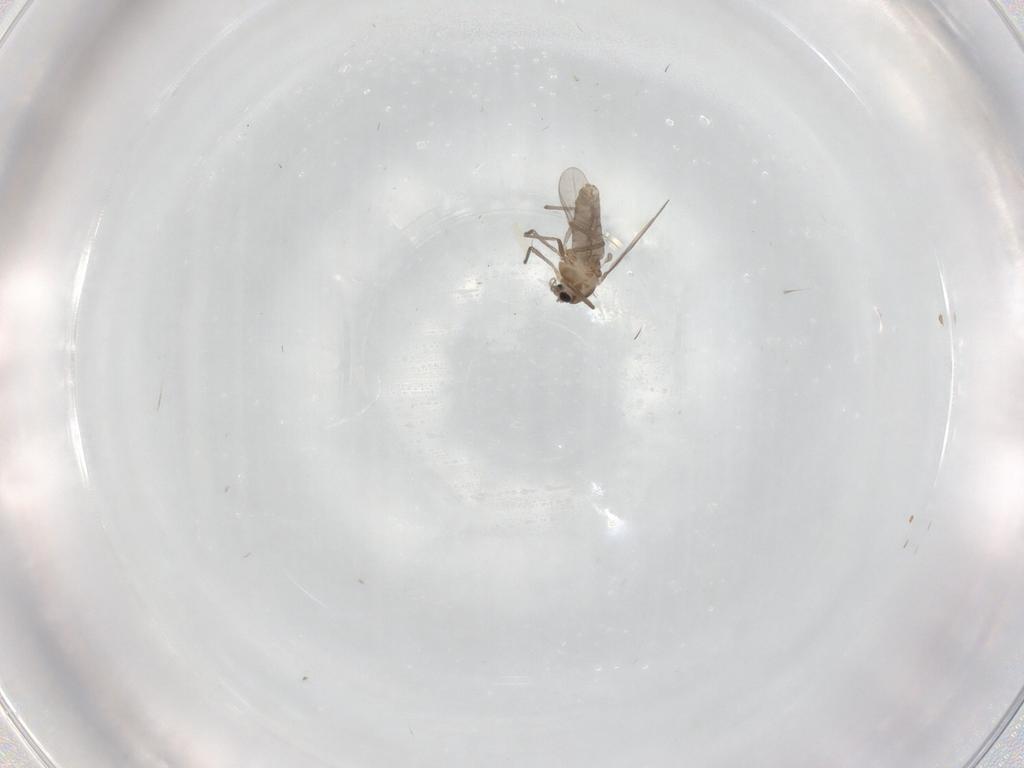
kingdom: Animalia
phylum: Arthropoda
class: Insecta
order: Diptera
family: Cecidomyiidae
